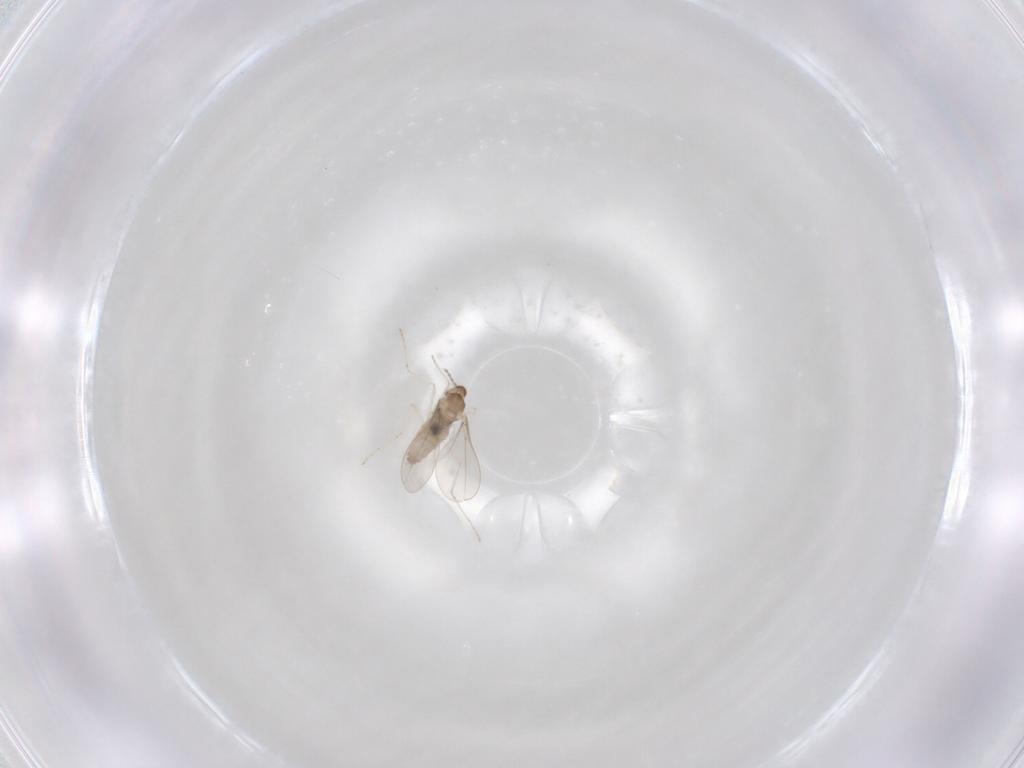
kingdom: Animalia
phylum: Arthropoda
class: Insecta
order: Diptera
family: Cecidomyiidae
